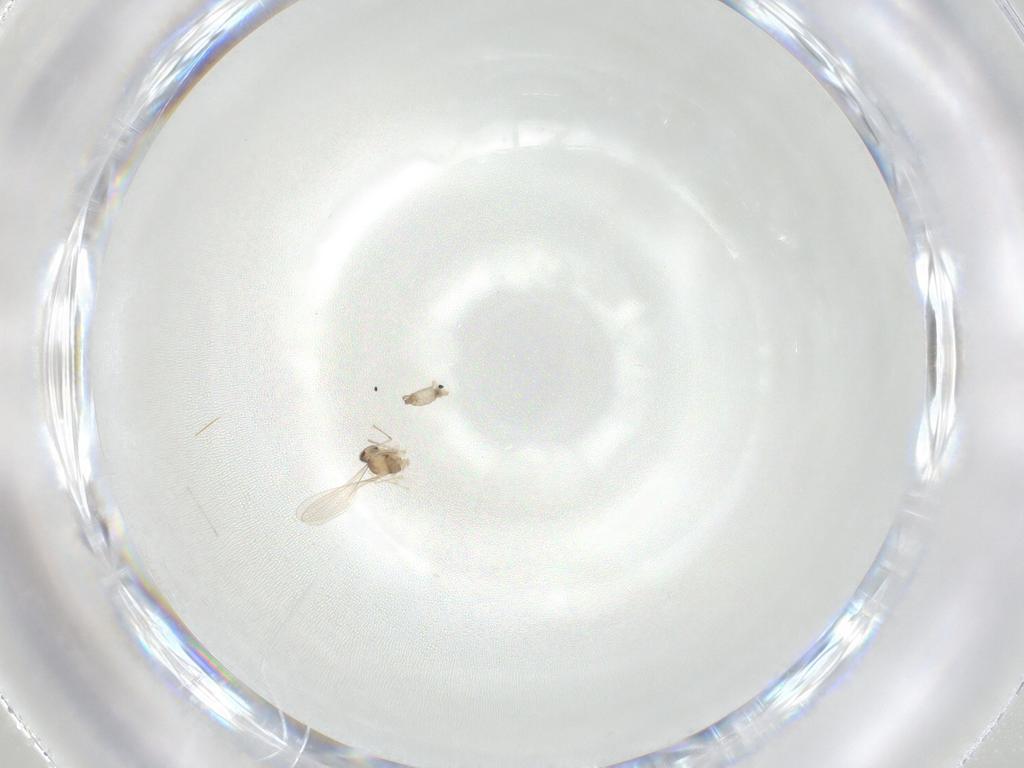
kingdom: Animalia
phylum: Arthropoda
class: Insecta
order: Diptera
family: Cecidomyiidae
